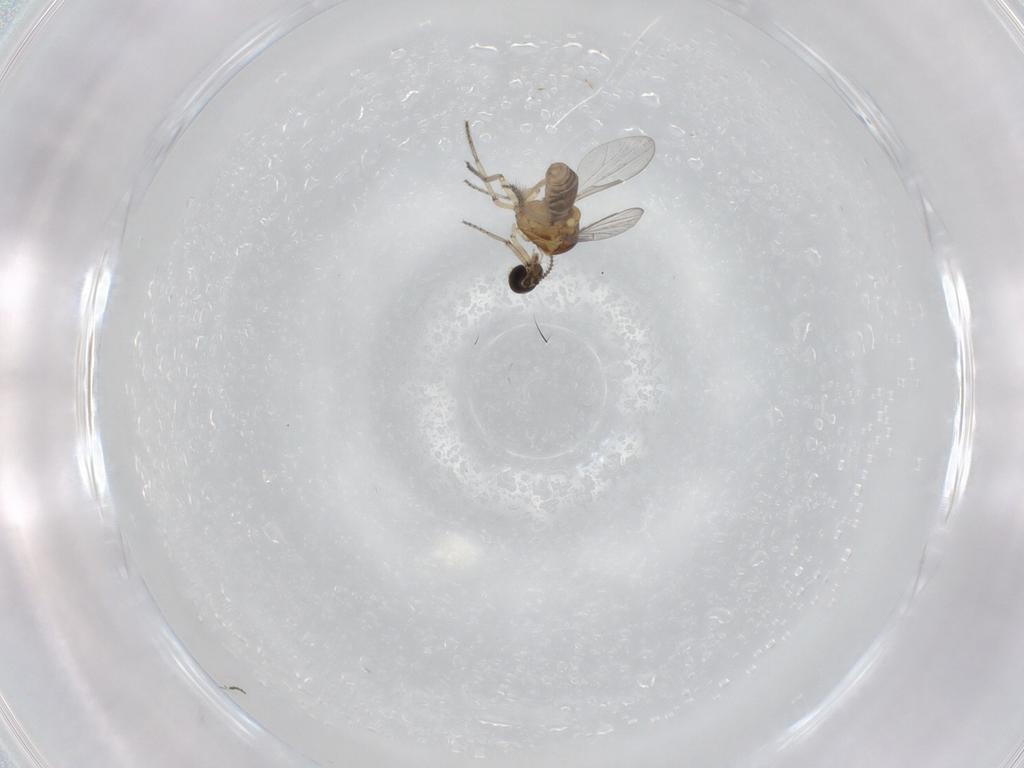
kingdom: Animalia
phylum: Arthropoda
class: Insecta
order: Diptera
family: Ceratopogonidae
